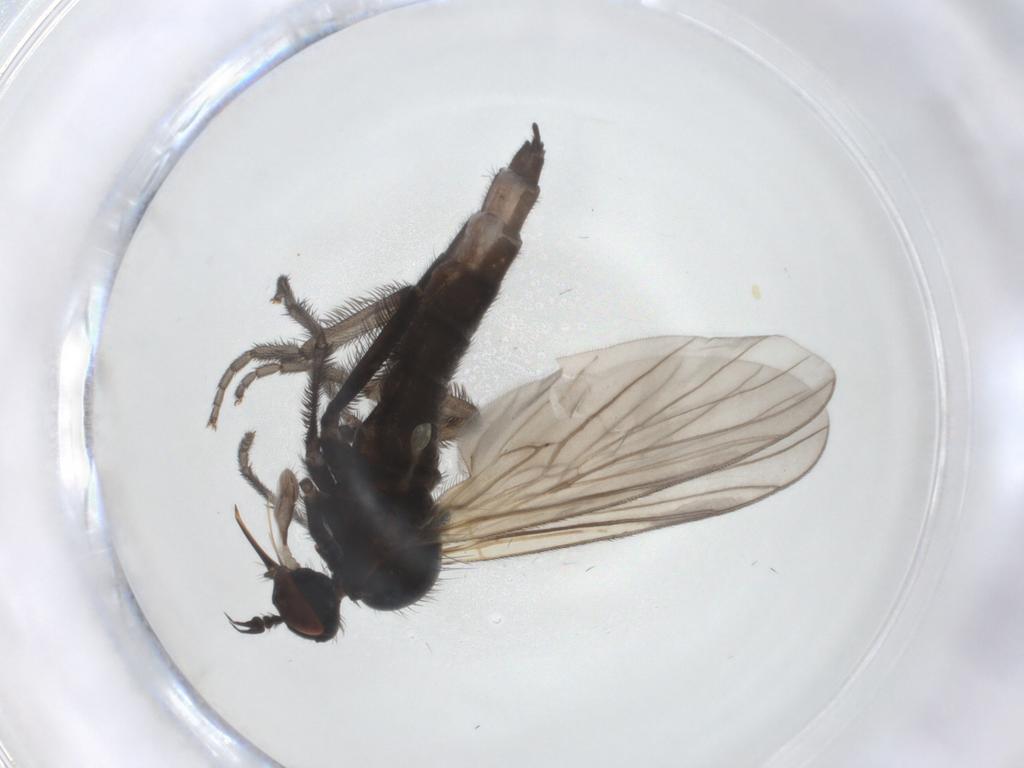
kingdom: Animalia
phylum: Arthropoda
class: Insecta
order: Diptera
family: Empididae
